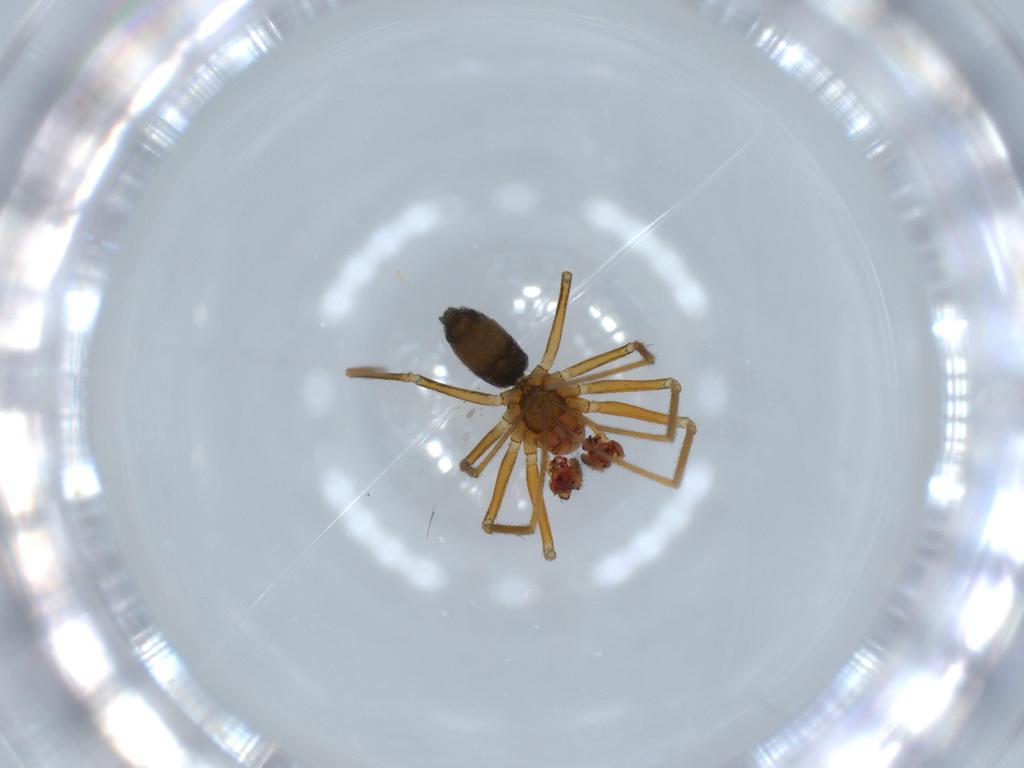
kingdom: Animalia
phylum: Arthropoda
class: Arachnida
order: Araneae
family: Linyphiidae
